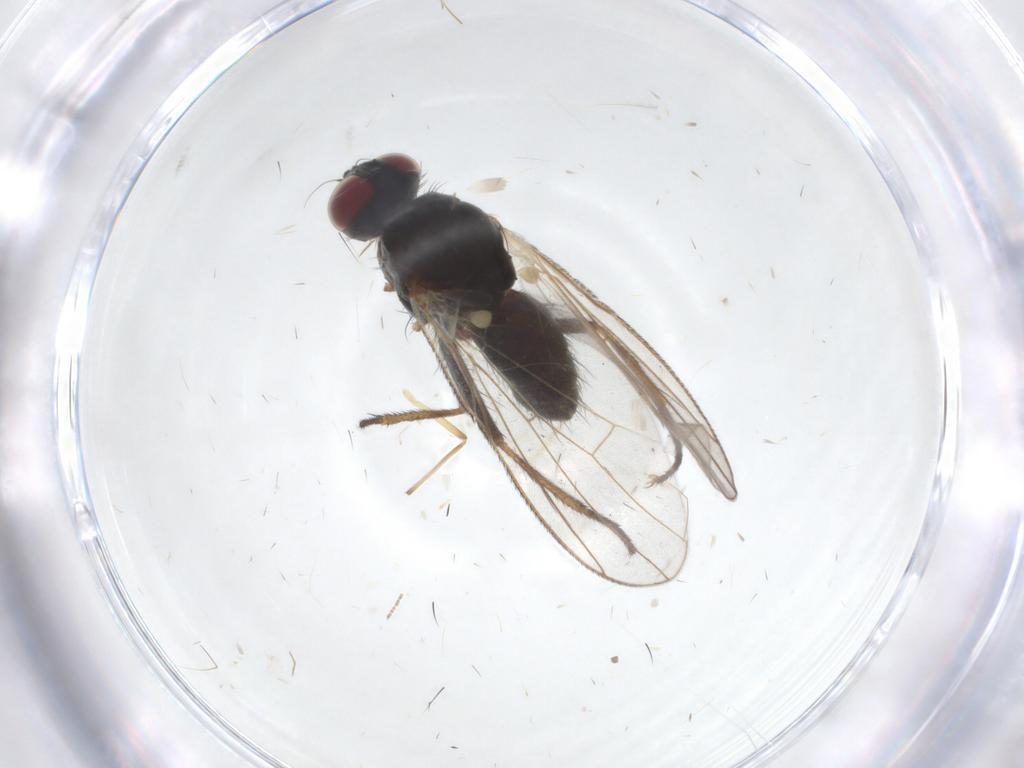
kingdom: Animalia
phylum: Arthropoda
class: Insecta
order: Diptera
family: Muscidae
